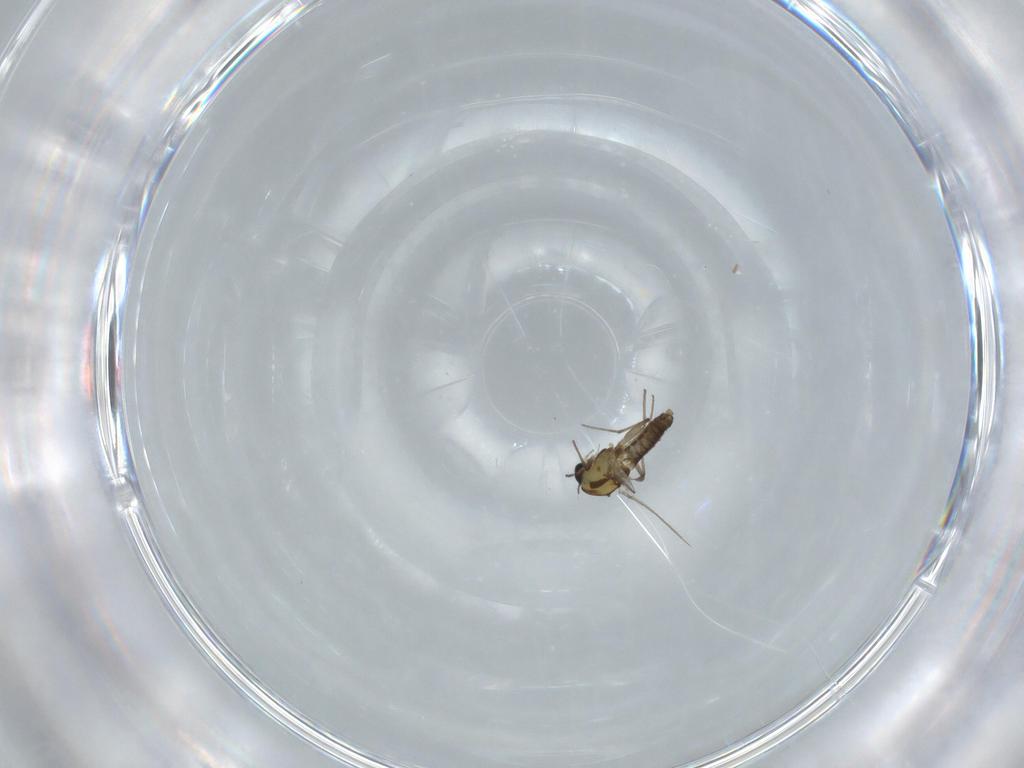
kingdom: Animalia
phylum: Arthropoda
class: Insecta
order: Diptera
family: Chironomidae
